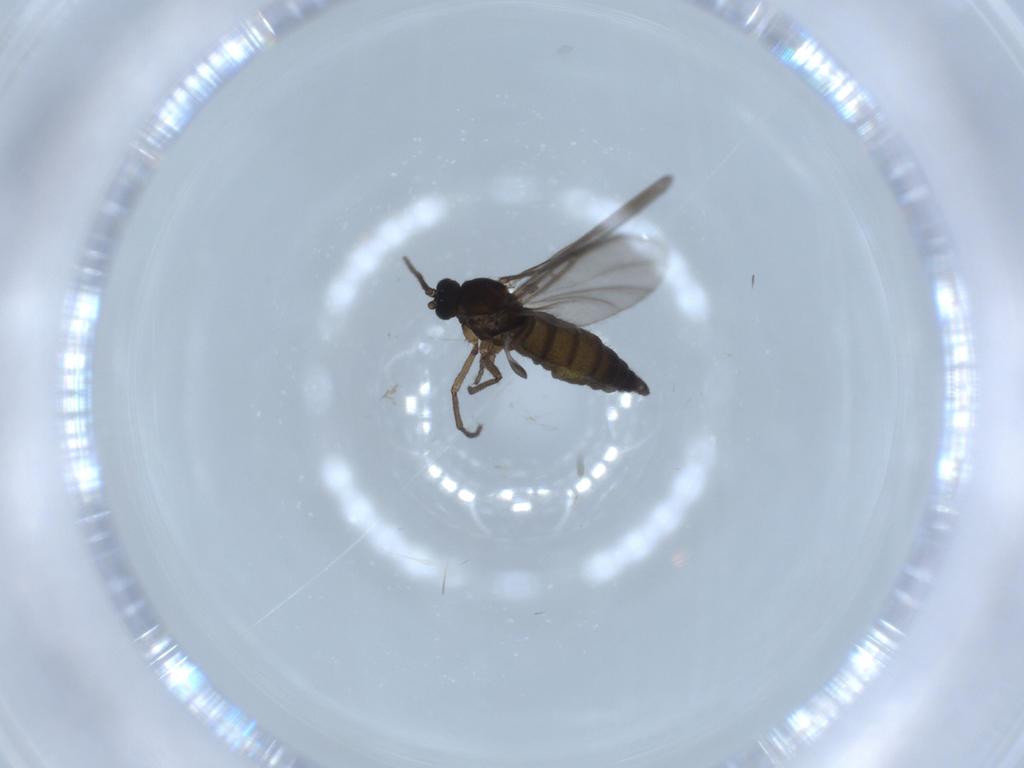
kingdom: Animalia
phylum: Arthropoda
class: Insecta
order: Diptera
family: Sciaridae
